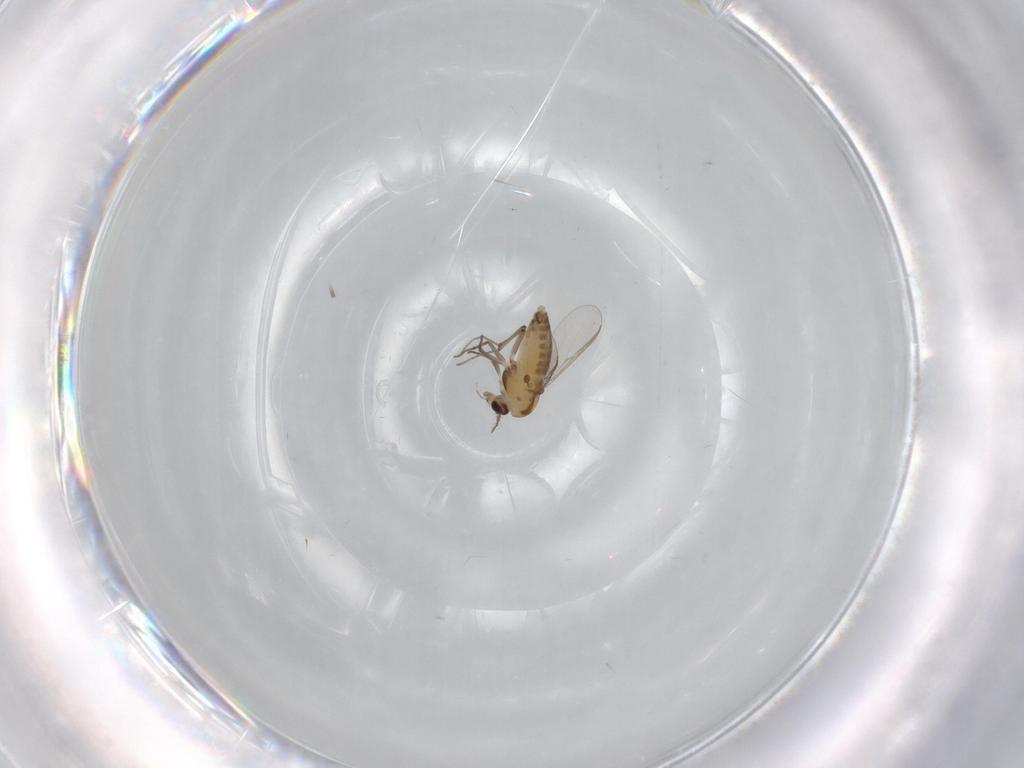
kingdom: Animalia
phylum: Arthropoda
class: Insecta
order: Diptera
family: Chironomidae
